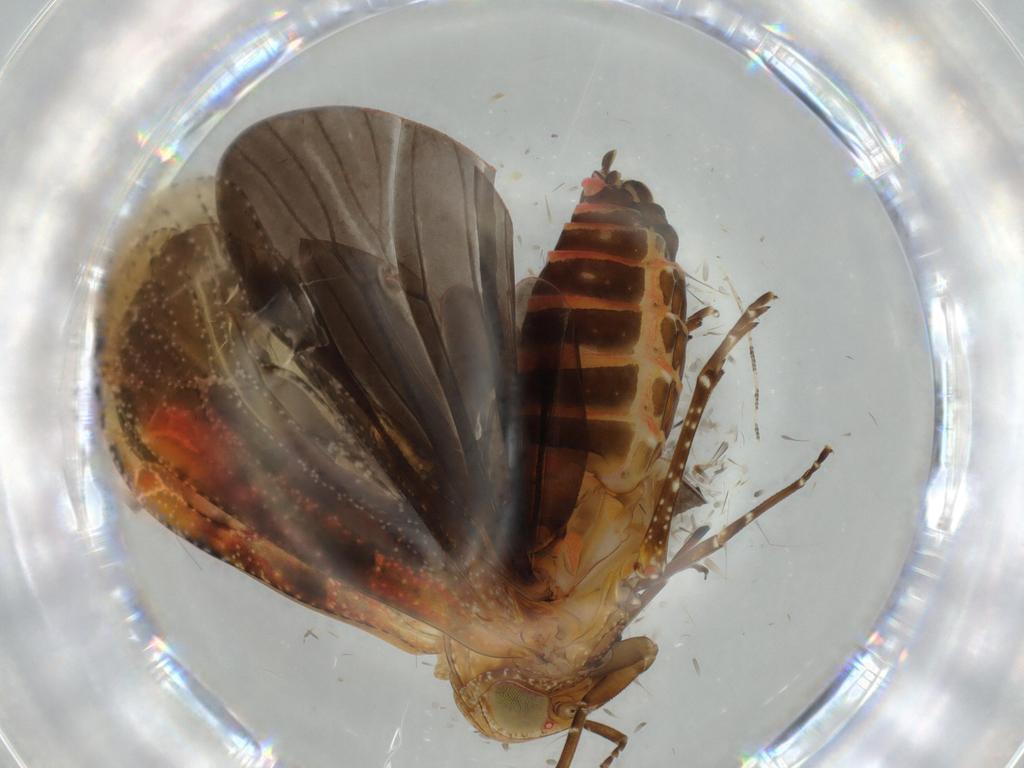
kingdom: Animalia
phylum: Arthropoda
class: Insecta
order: Hemiptera
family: Achilidae
